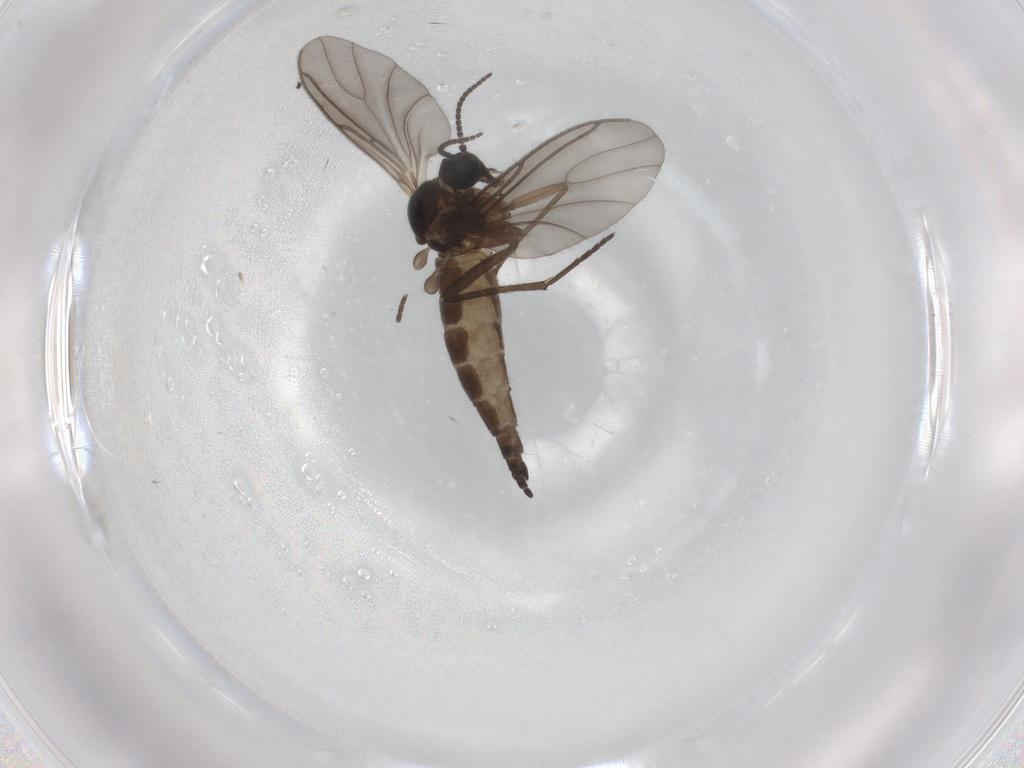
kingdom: Animalia
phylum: Arthropoda
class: Insecta
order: Diptera
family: Sciaridae
